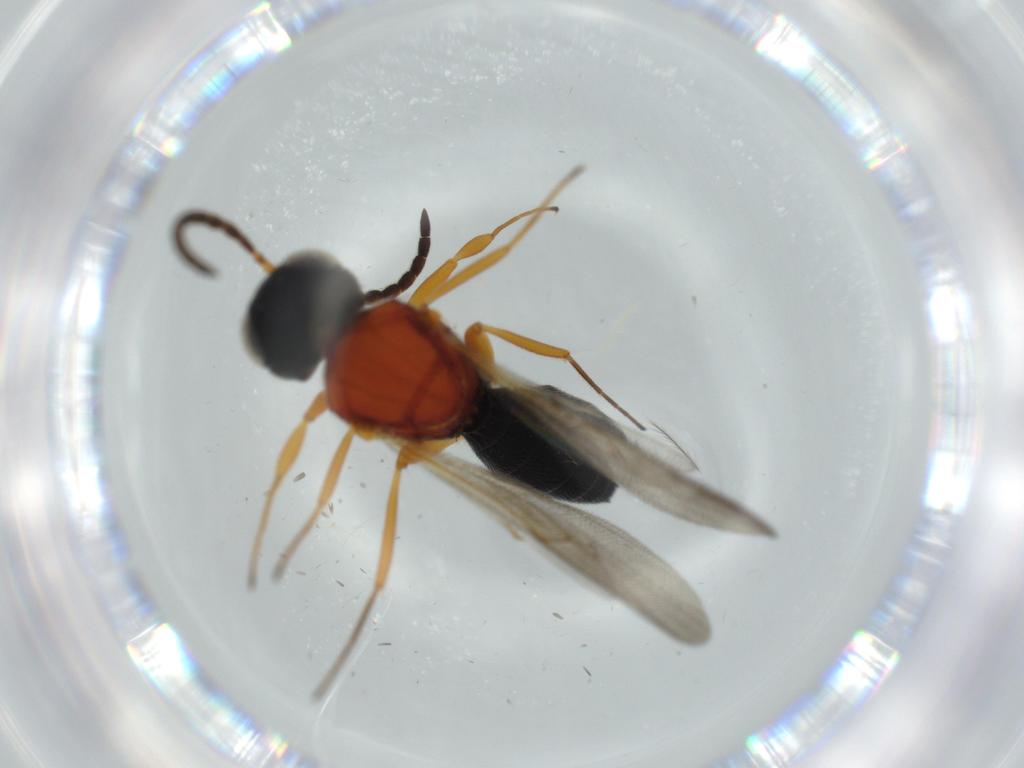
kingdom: Animalia
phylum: Arthropoda
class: Insecta
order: Hymenoptera
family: Scelionidae
